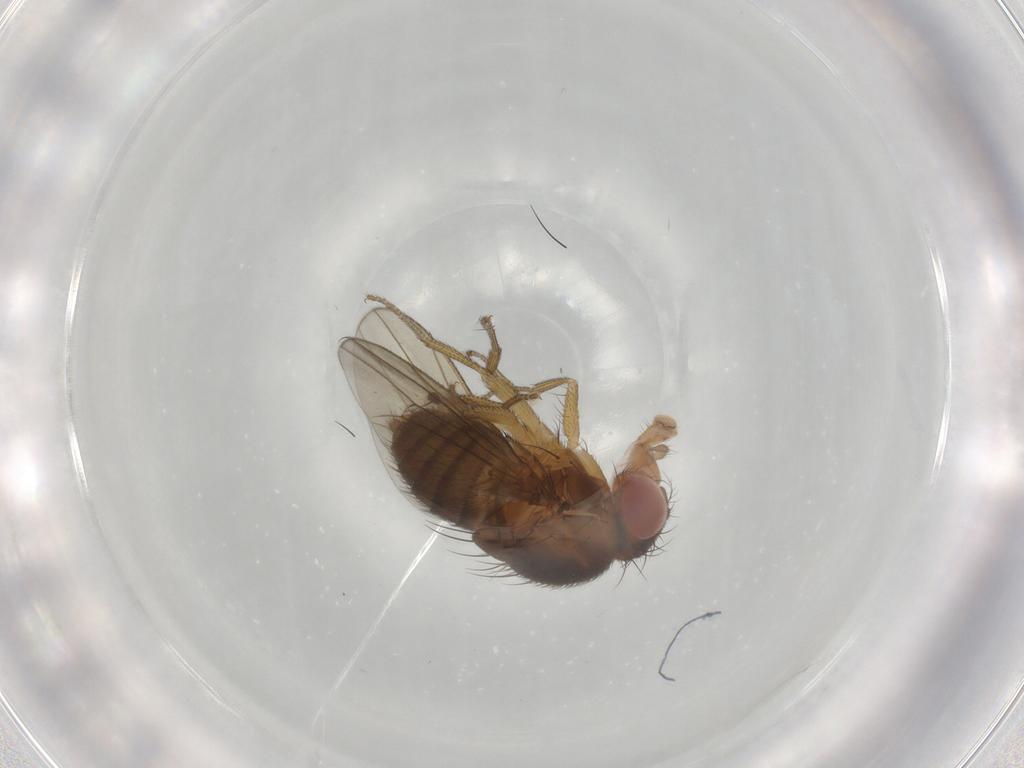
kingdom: Animalia
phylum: Arthropoda
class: Insecta
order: Diptera
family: Drosophilidae
